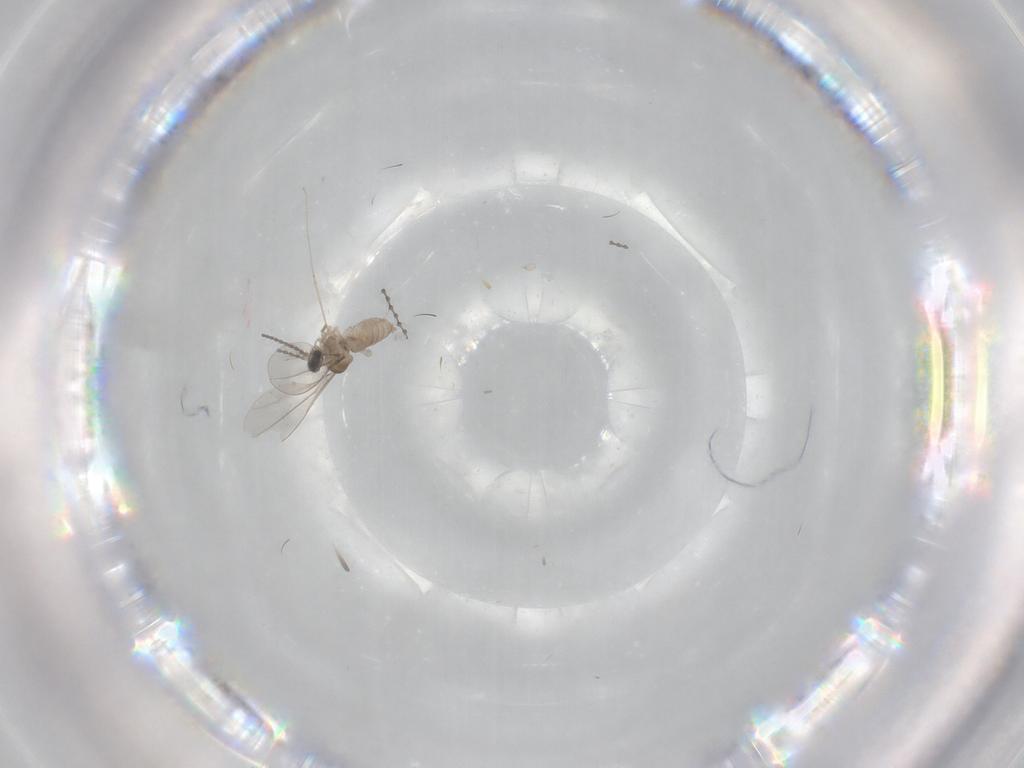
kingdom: Animalia
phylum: Arthropoda
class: Insecta
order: Diptera
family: Cecidomyiidae
